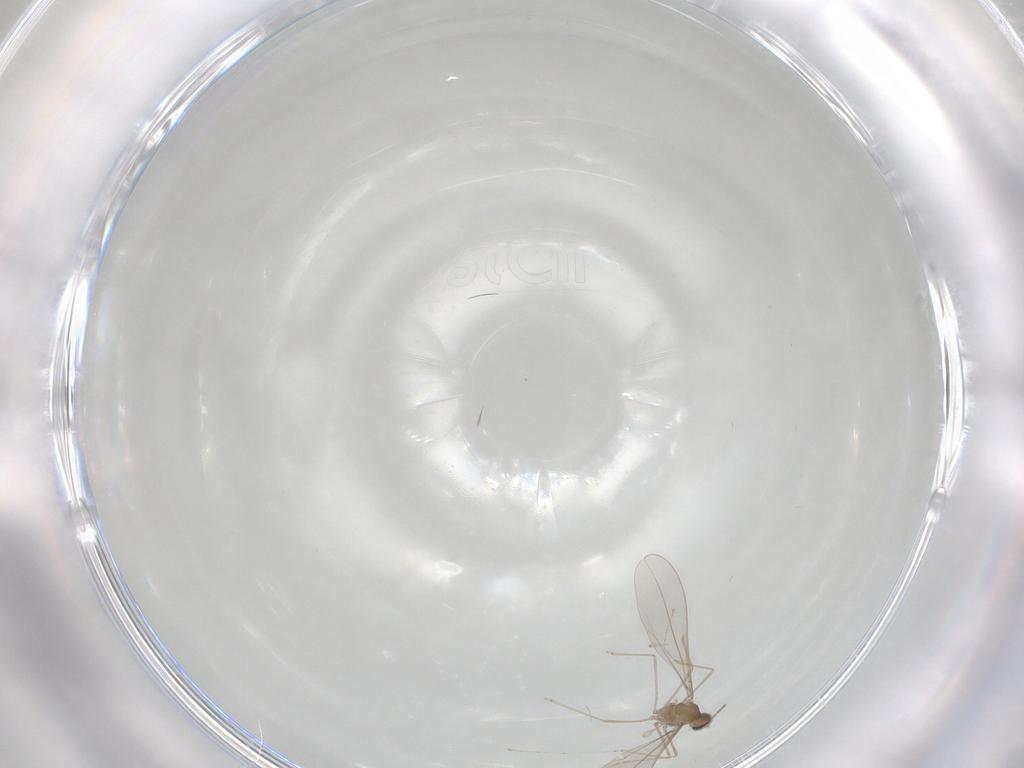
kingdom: Animalia
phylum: Arthropoda
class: Insecta
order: Diptera
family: Cecidomyiidae
